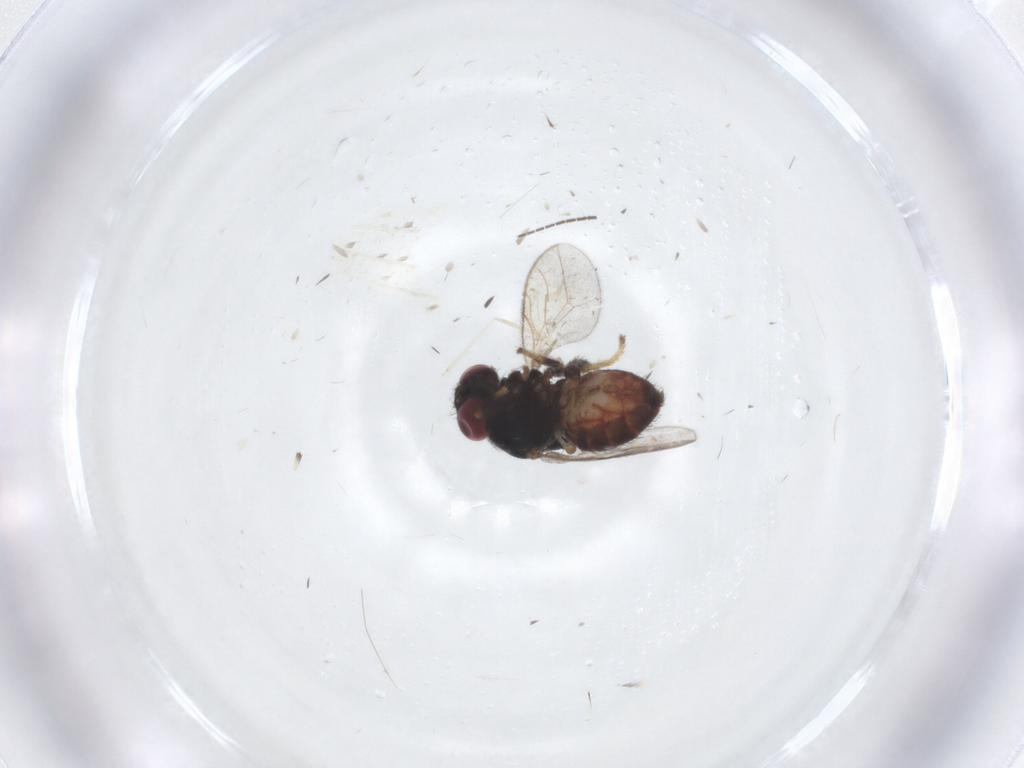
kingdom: Animalia
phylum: Arthropoda
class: Insecta
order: Diptera
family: Chloropidae
